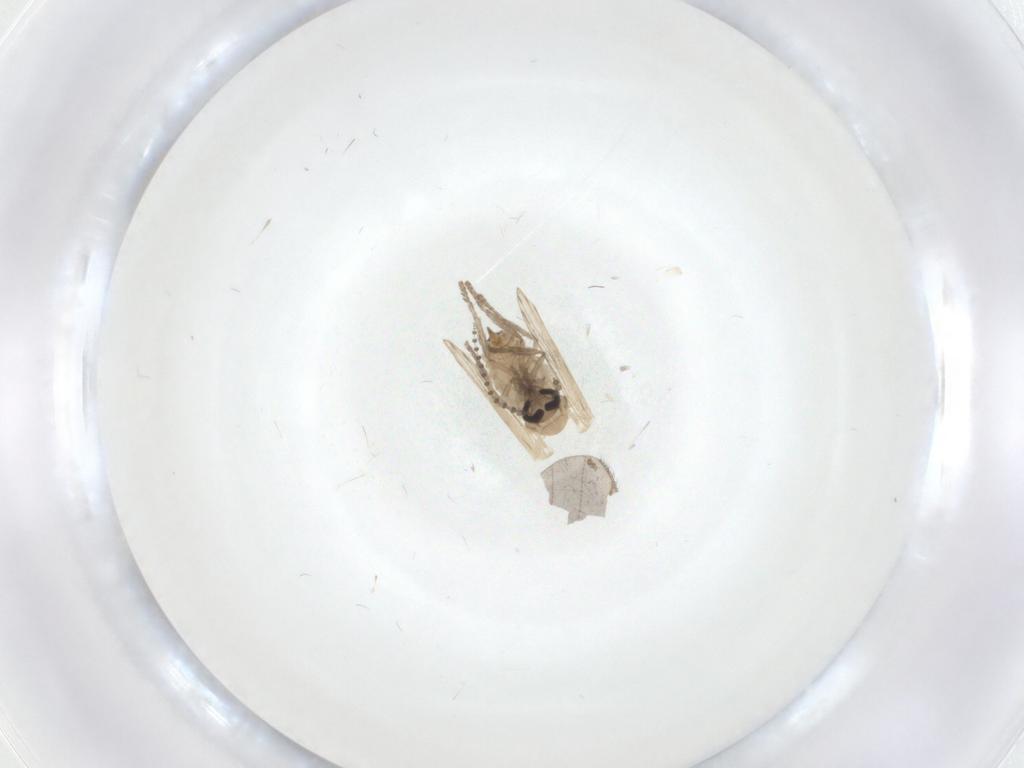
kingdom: Animalia
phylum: Arthropoda
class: Insecta
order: Diptera
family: Psychodidae
